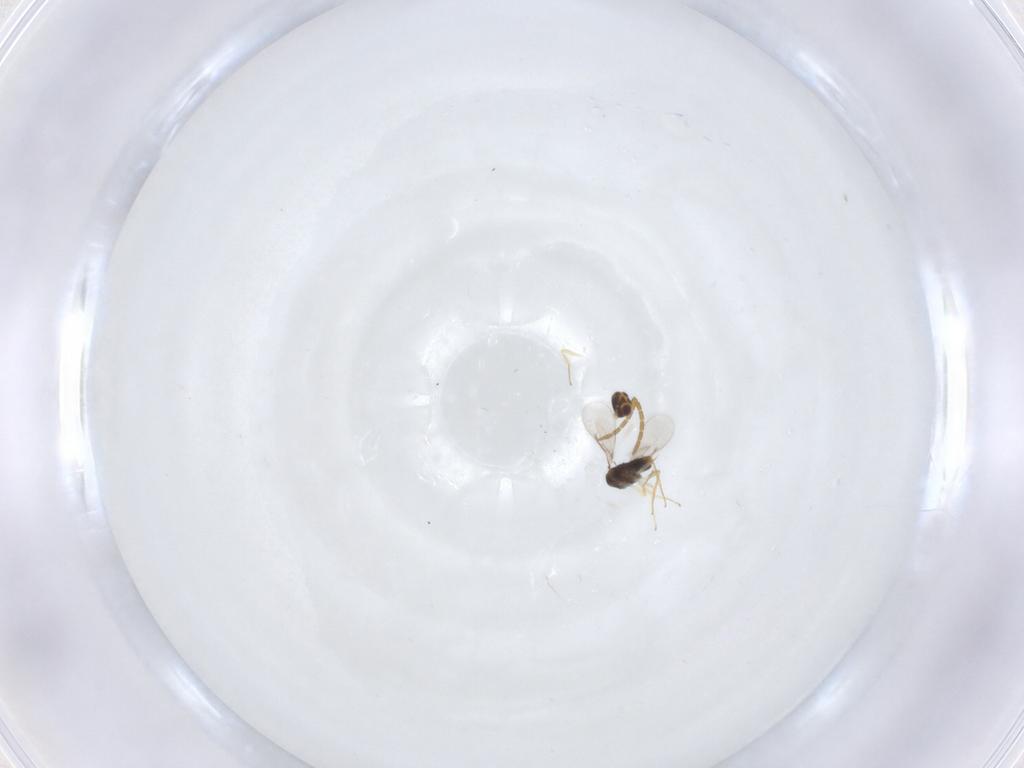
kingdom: Animalia
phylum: Arthropoda
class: Insecta
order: Hymenoptera
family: Aphelinidae
